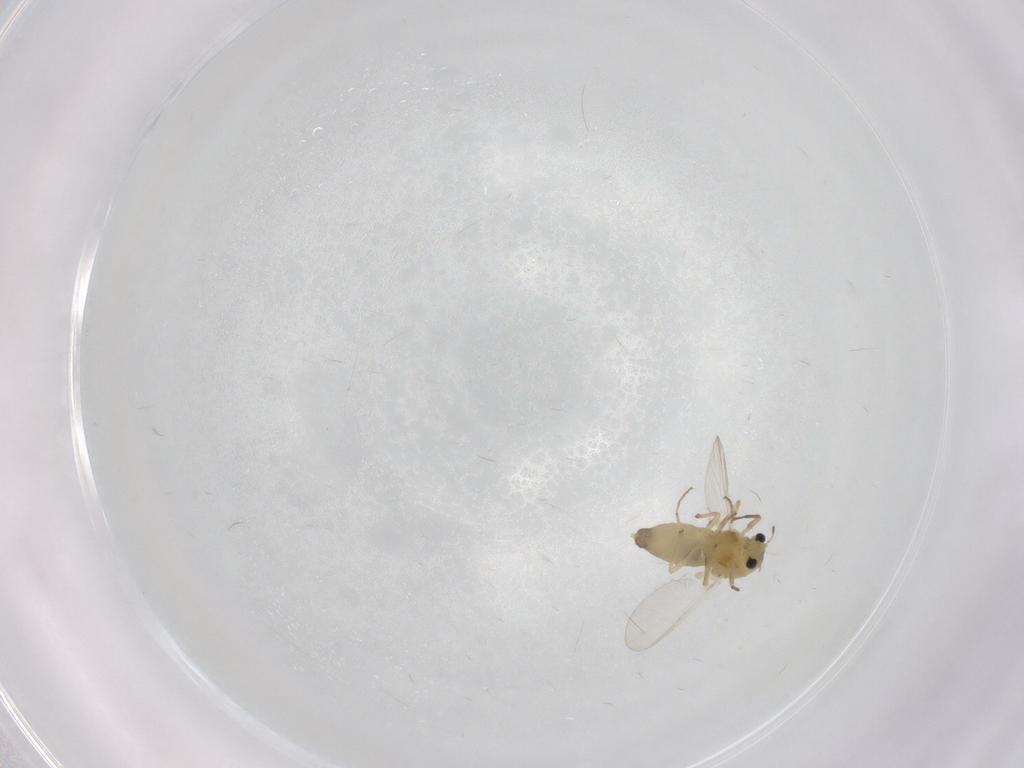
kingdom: Animalia
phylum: Arthropoda
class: Insecta
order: Diptera
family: Chironomidae
